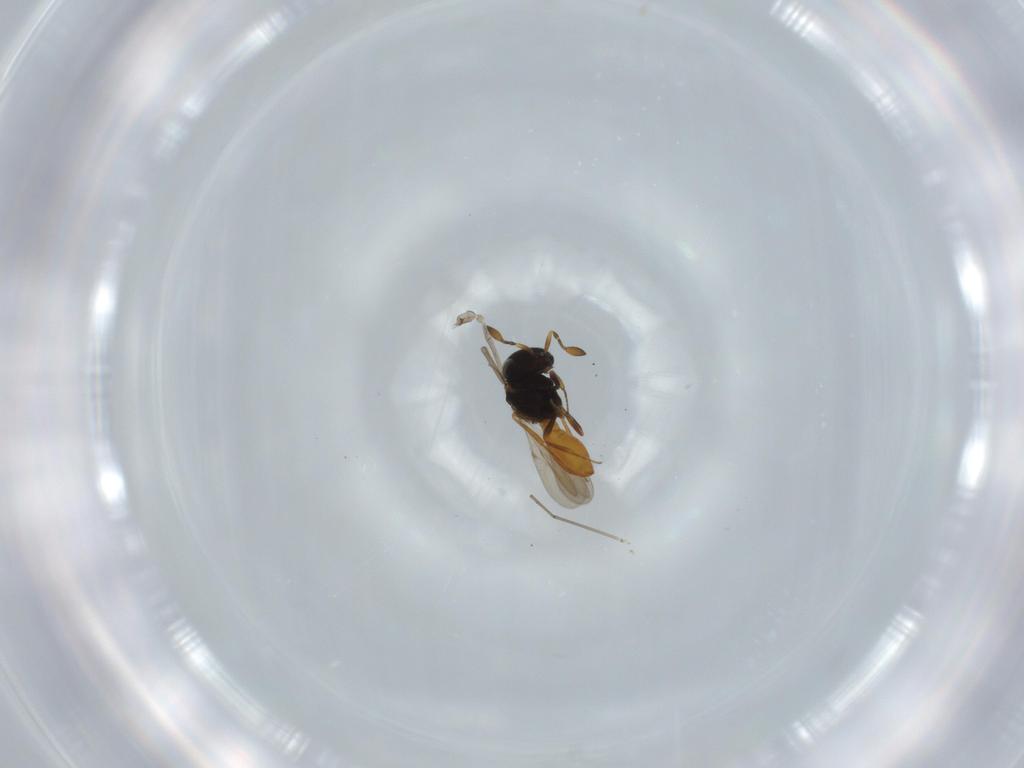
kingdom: Animalia
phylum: Arthropoda
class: Insecta
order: Hymenoptera
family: Scelionidae
